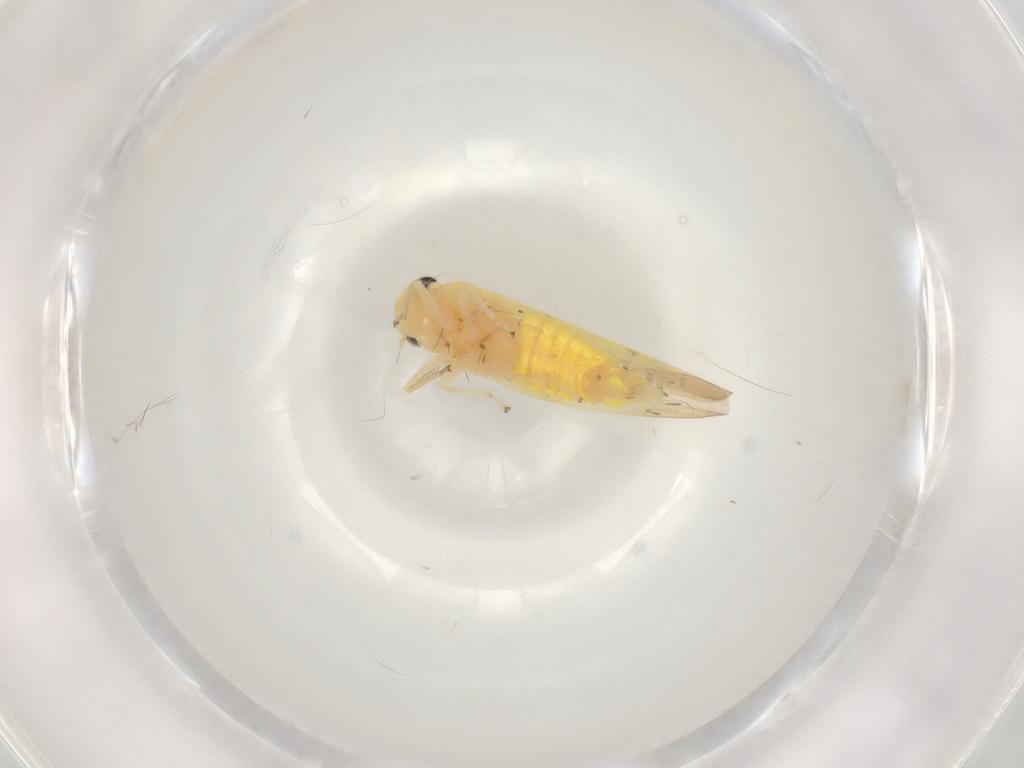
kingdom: Animalia
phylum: Arthropoda
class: Insecta
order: Hemiptera
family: Cicadellidae
